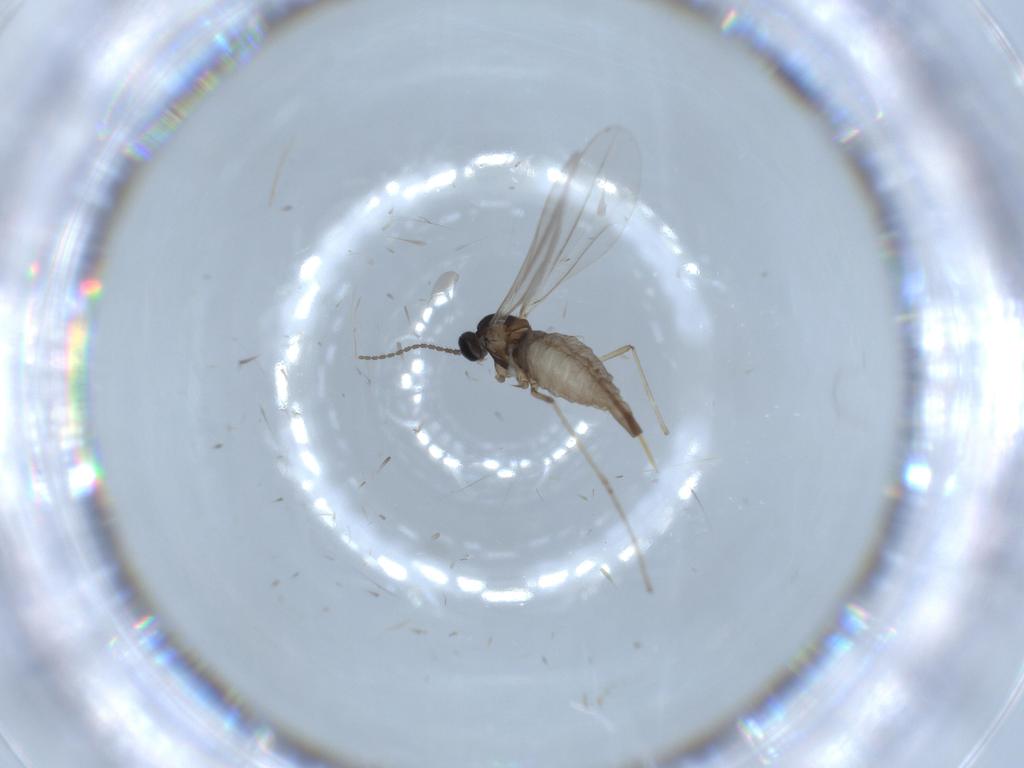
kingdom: Animalia
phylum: Arthropoda
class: Insecta
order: Diptera
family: Cecidomyiidae
